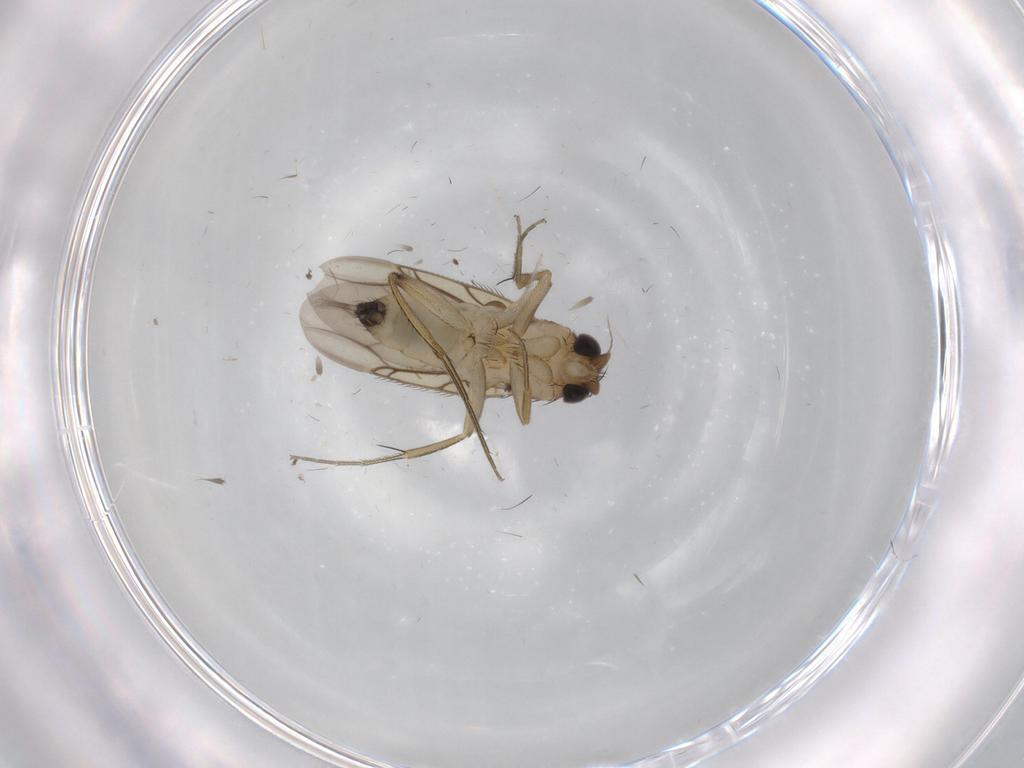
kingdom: Animalia
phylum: Arthropoda
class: Insecta
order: Diptera
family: Phoridae
